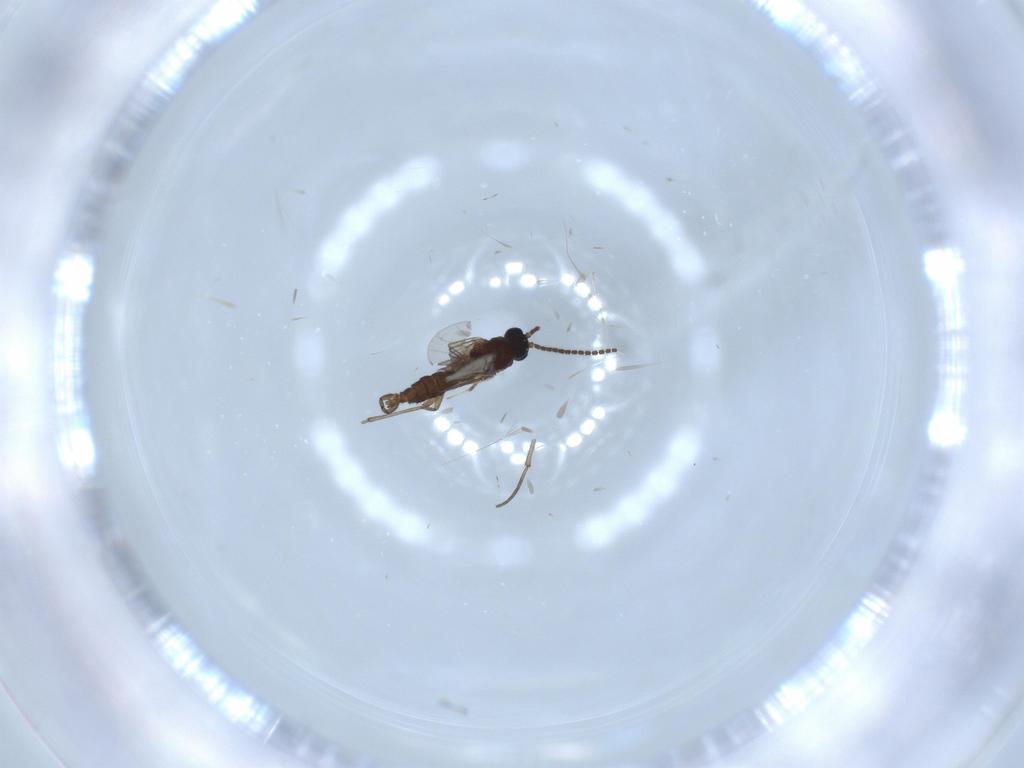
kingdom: Animalia
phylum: Arthropoda
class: Insecta
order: Diptera
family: Sciaridae
